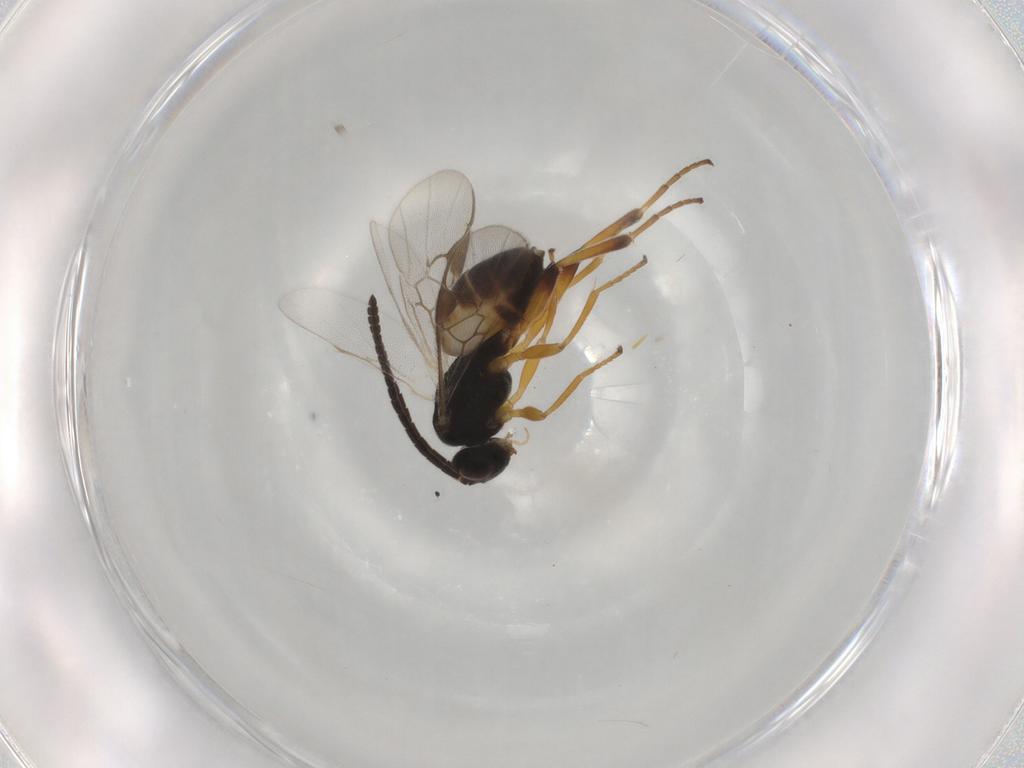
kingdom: Animalia
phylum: Arthropoda
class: Insecta
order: Hymenoptera
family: Braconidae
